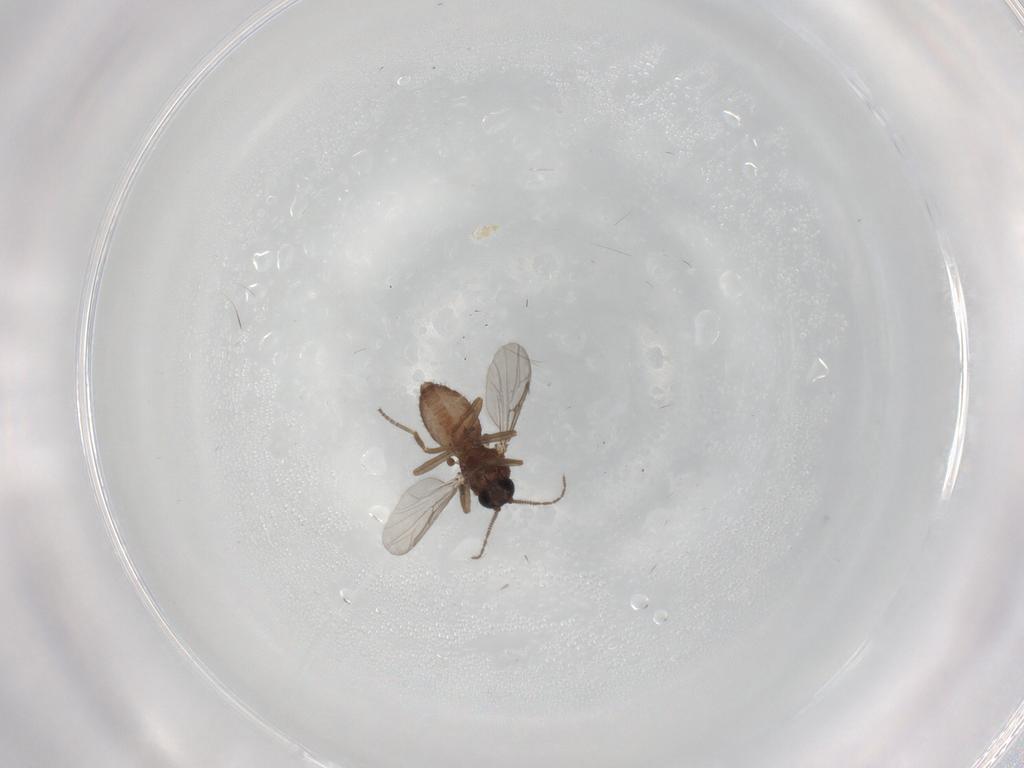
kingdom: Animalia
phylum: Arthropoda
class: Insecta
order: Diptera
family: Ceratopogonidae
